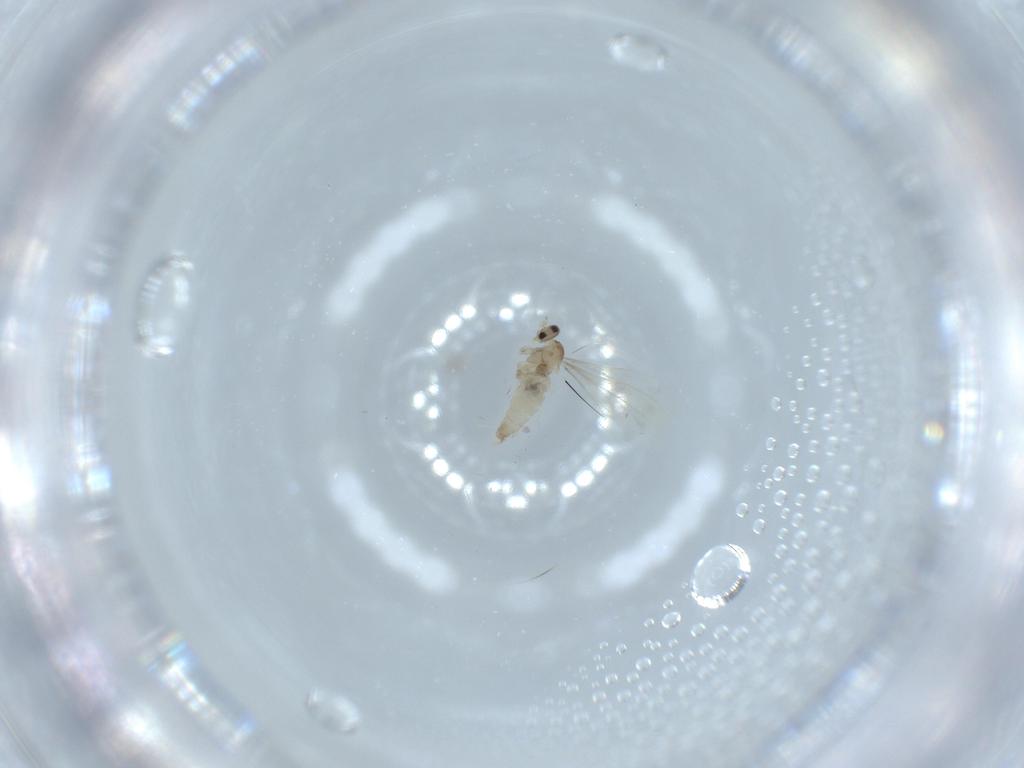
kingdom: Animalia
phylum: Arthropoda
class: Insecta
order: Diptera
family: Cecidomyiidae
